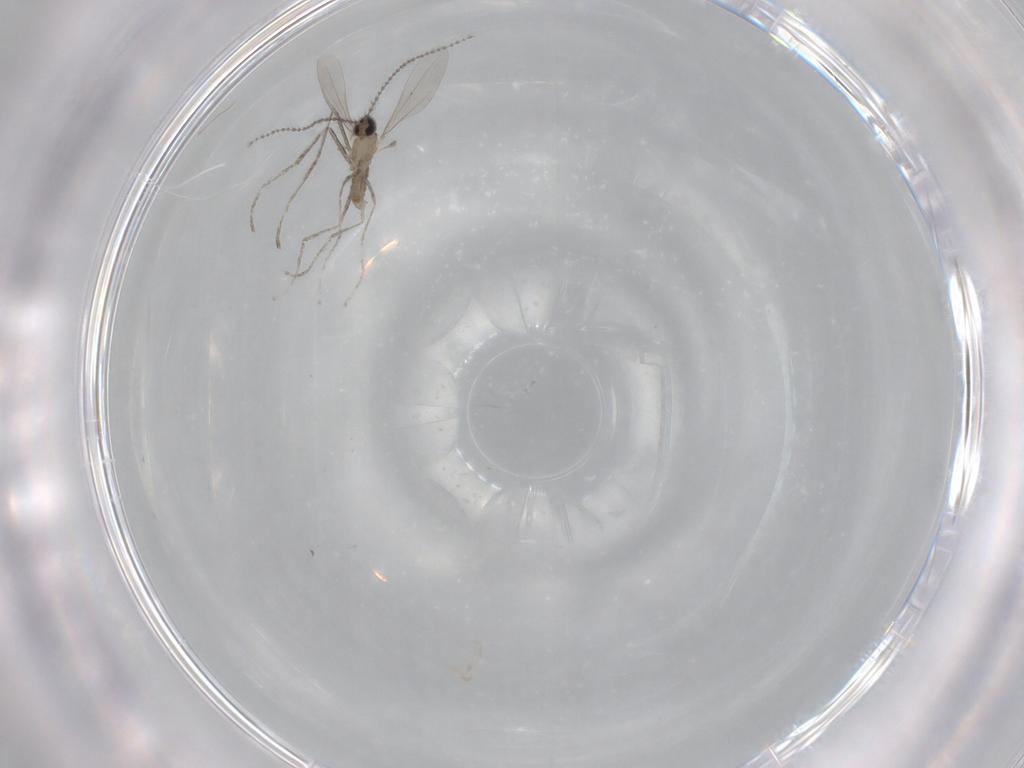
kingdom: Animalia
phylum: Arthropoda
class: Insecta
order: Diptera
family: Cecidomyiidae
